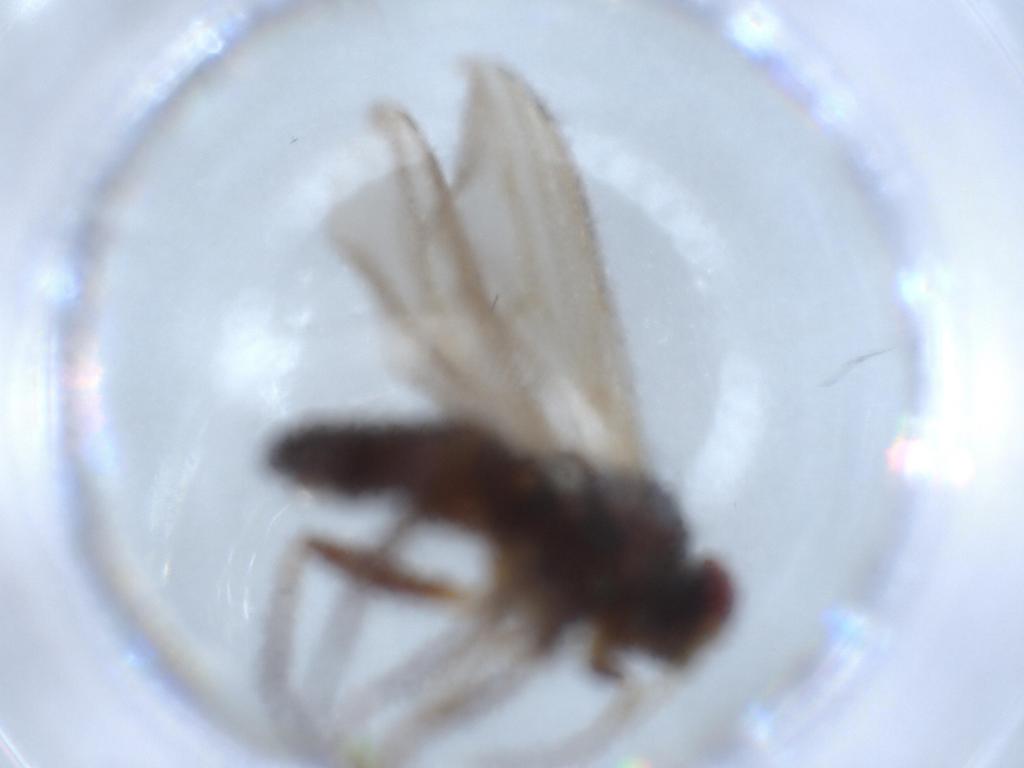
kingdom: Animalia
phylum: Arthropoda
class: Insecta
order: Diptera
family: Dolichopodidae
